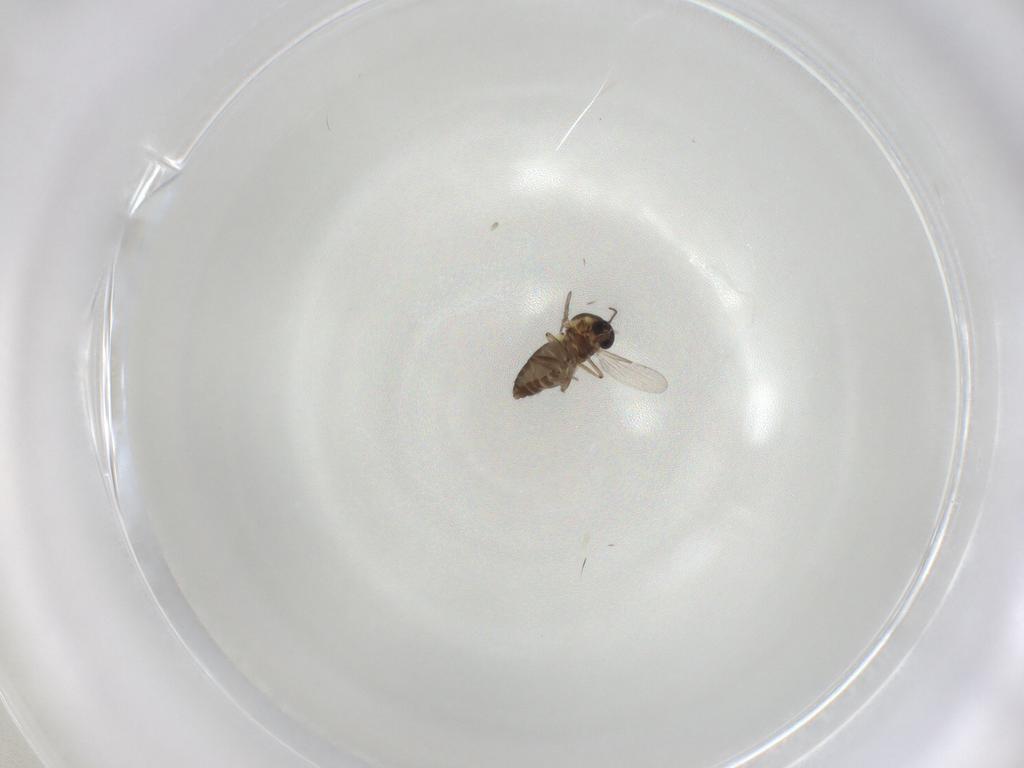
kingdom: Animalia
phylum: Arthropoda
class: Insecta
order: Diptera
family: Ceratopogonidae
